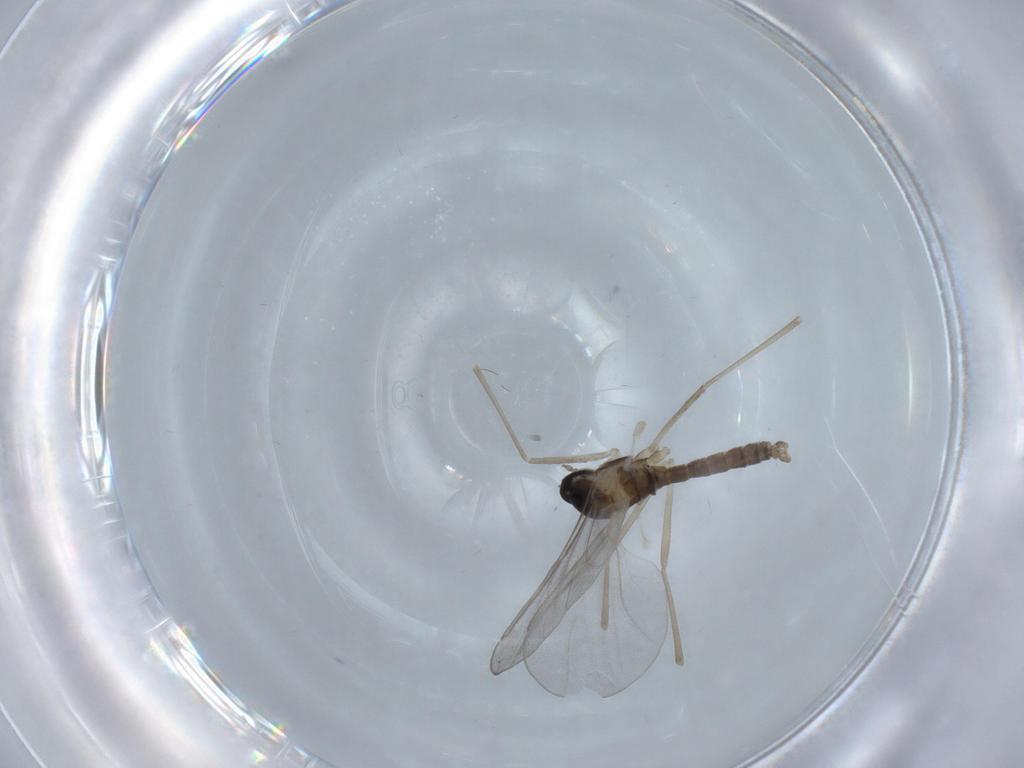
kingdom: Animalia
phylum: Arthropoda
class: Insecta
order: Diptera
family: Cecidomyiidae
